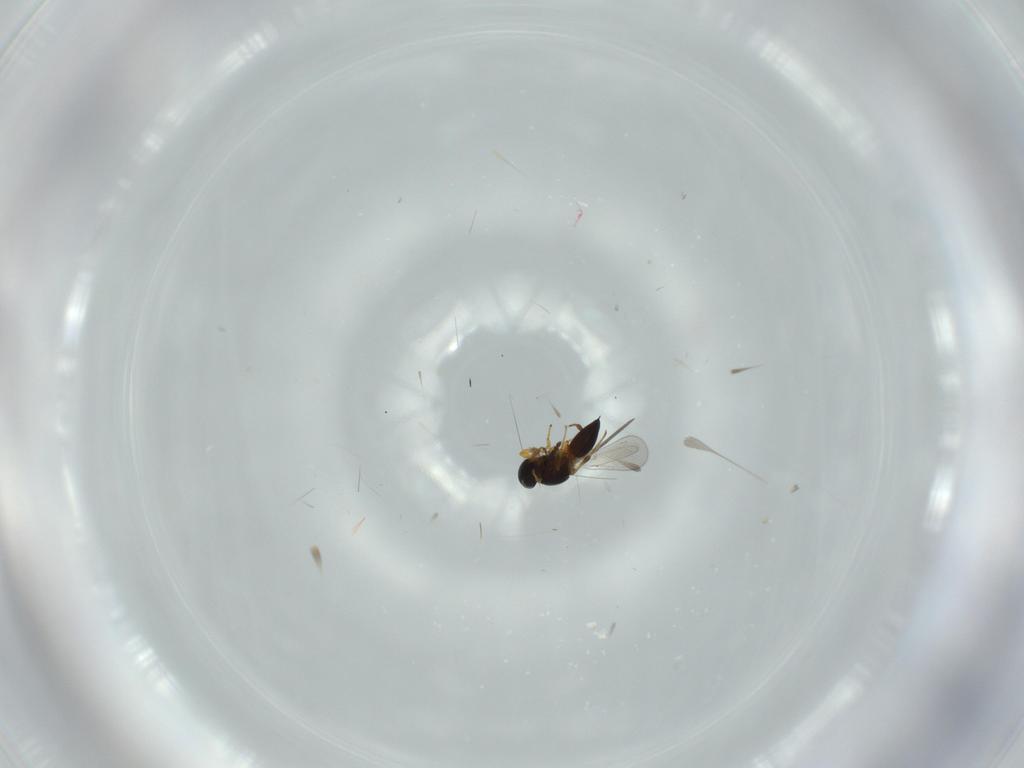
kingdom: Animalia
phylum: Arthropoda
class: Insecta
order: Hymenoptera
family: Platygastridae
